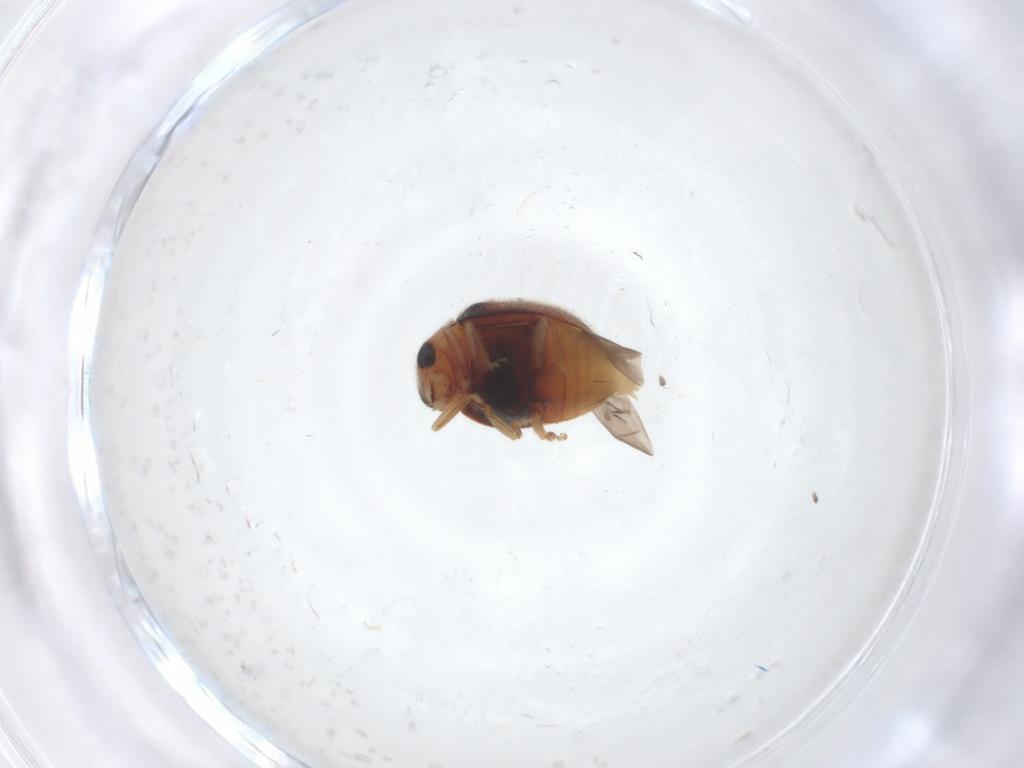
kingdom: Animalia
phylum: Arthropoda
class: Insecta
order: Coleoptera
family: Coccinellidae
